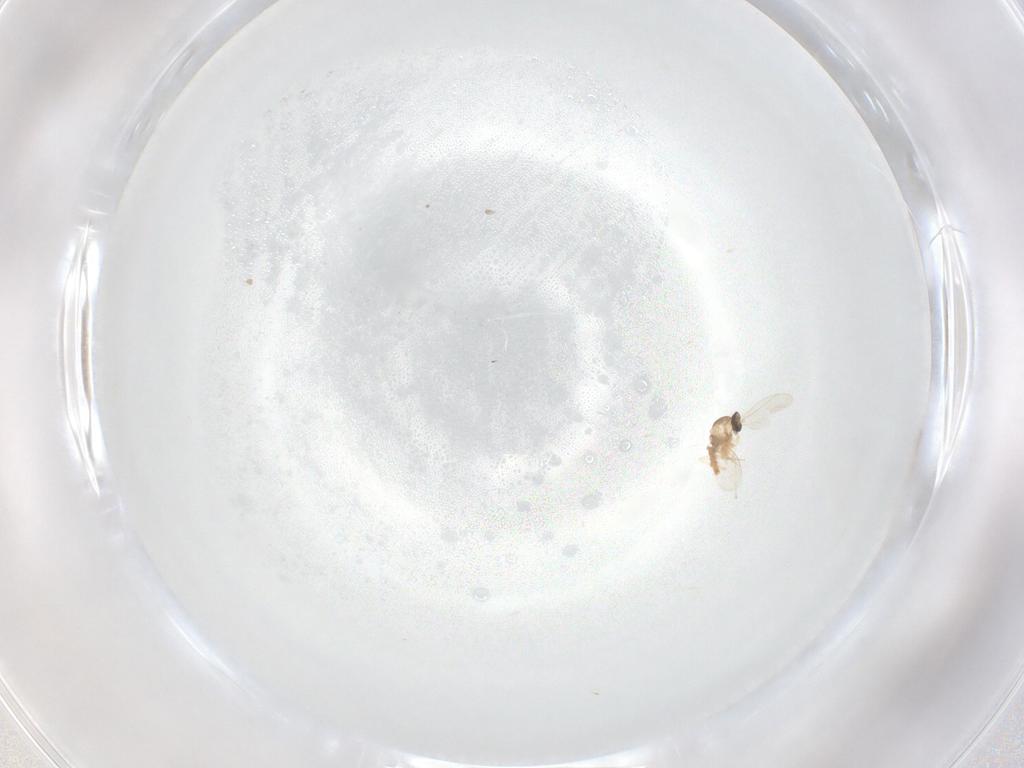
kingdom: Animalia
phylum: Arthropoda
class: Insecta
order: Diptera
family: Cecidomyiidae
